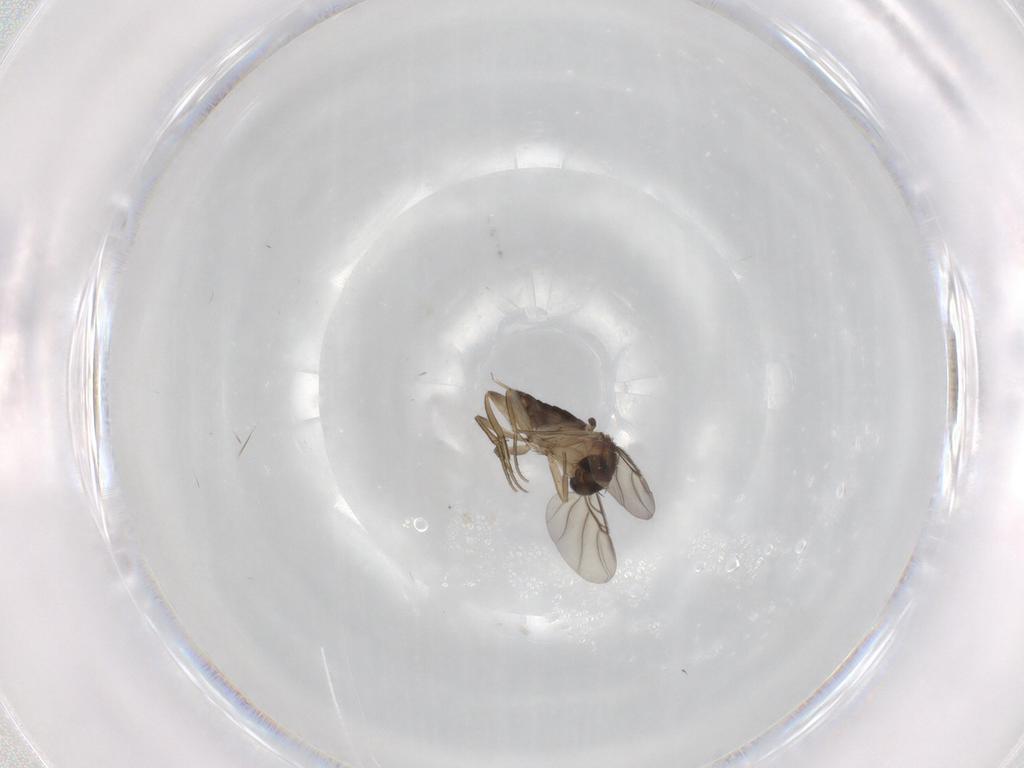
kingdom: Animalia
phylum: Arthropoda
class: Insecta
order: Diptera
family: Phoridae
